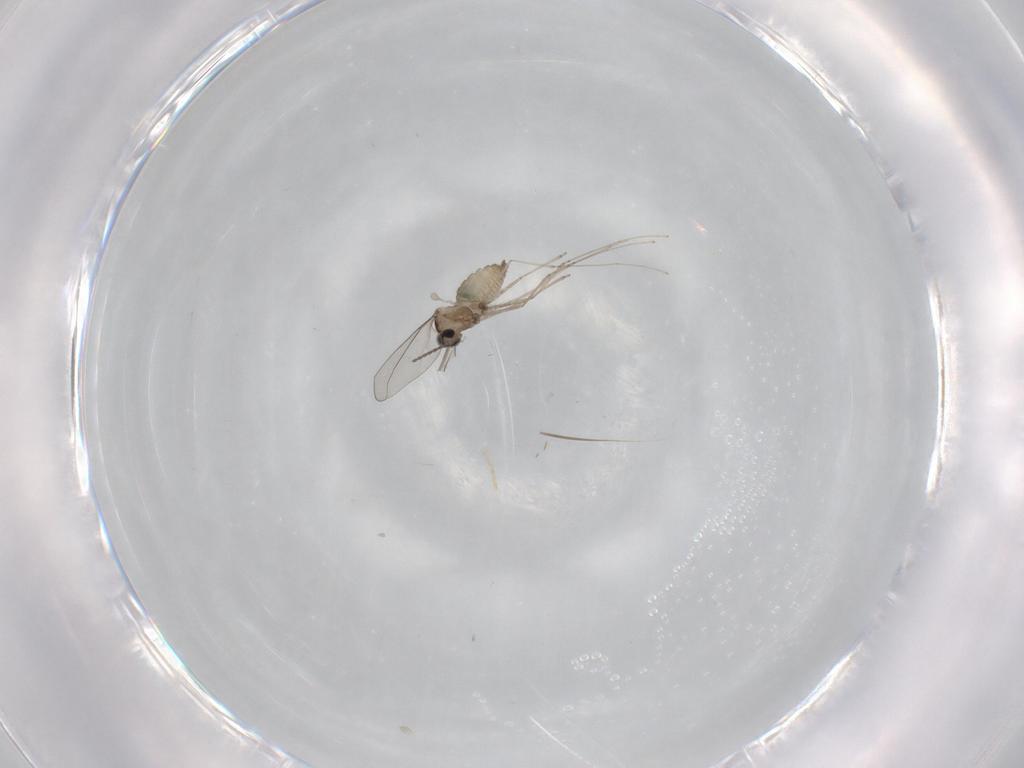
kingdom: Animalia
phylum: Arthropoda
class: Insecta
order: Diptera
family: Cecidomyiidae
